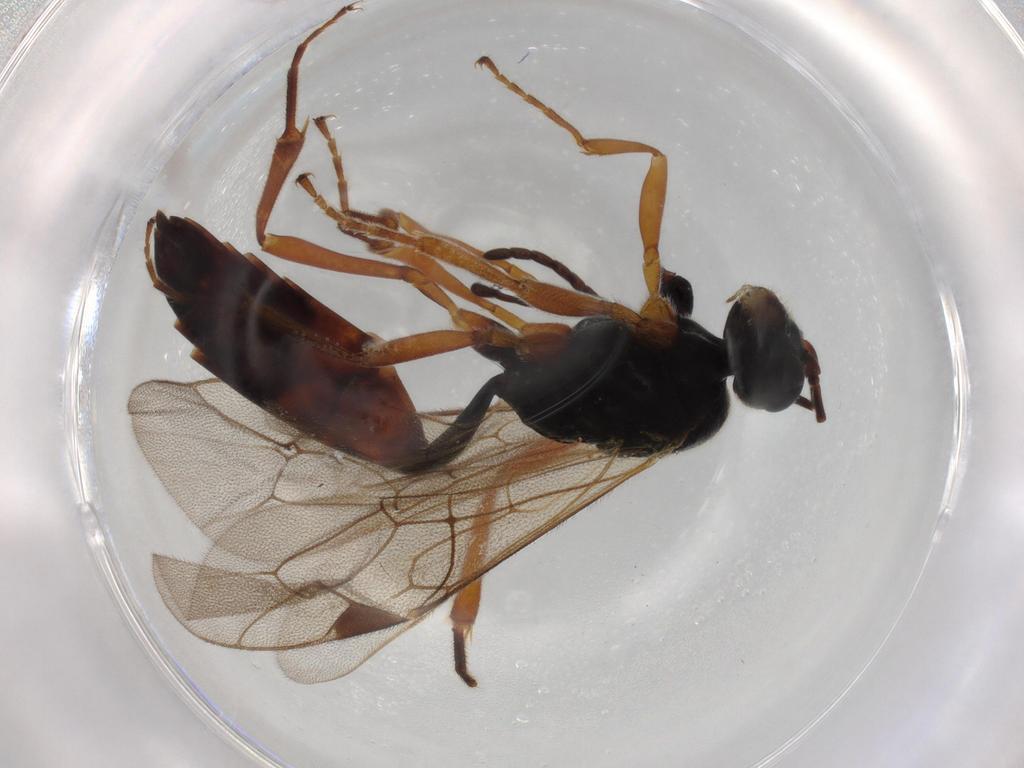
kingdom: Animalia
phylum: Arthropoda
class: Insecta
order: Hymenoptera
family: Ichneumonidae
